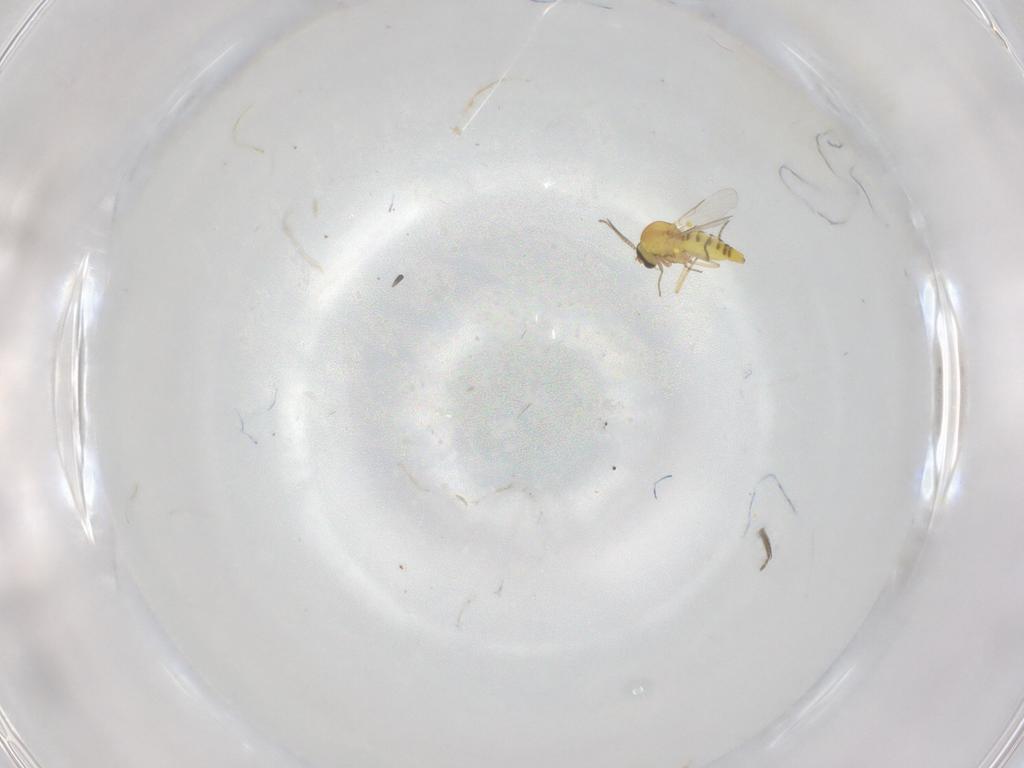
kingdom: Animalia
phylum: Arthropoda
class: Insecta
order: Diptera
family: Ceratopogonidae
